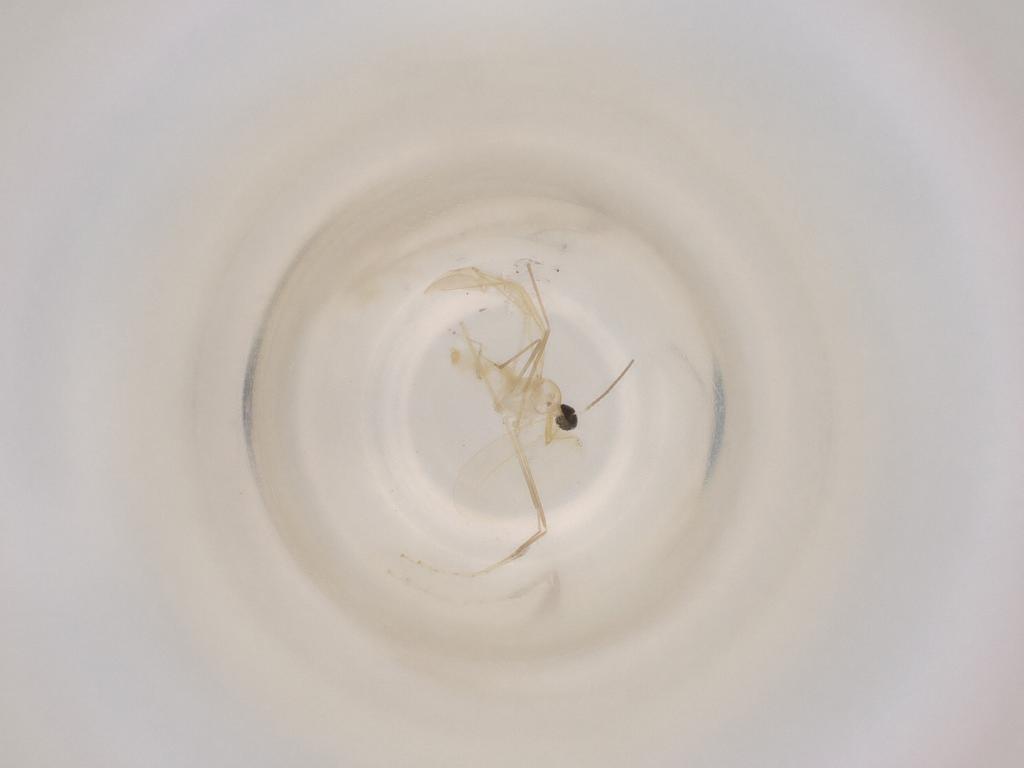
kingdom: Animalia
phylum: Arthropoda
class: Insecta
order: Diptera
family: Cecidomyiidae
